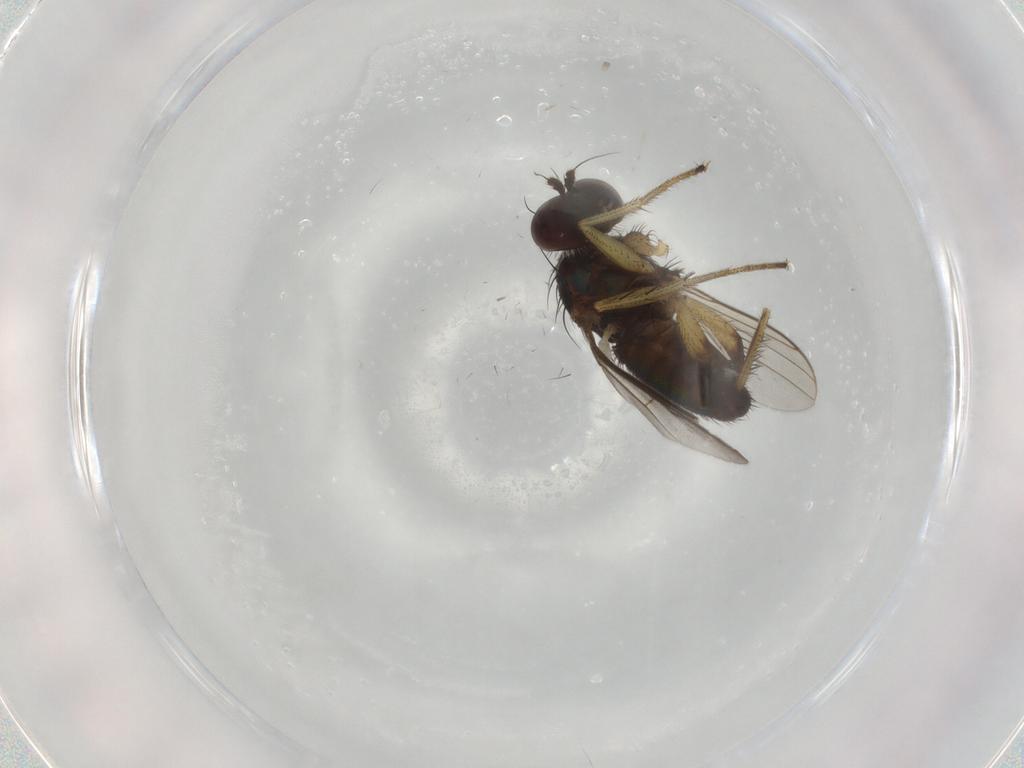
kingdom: Animalia
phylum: Arthropoda
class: Insecta
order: Diptera
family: Dolichopodidae
